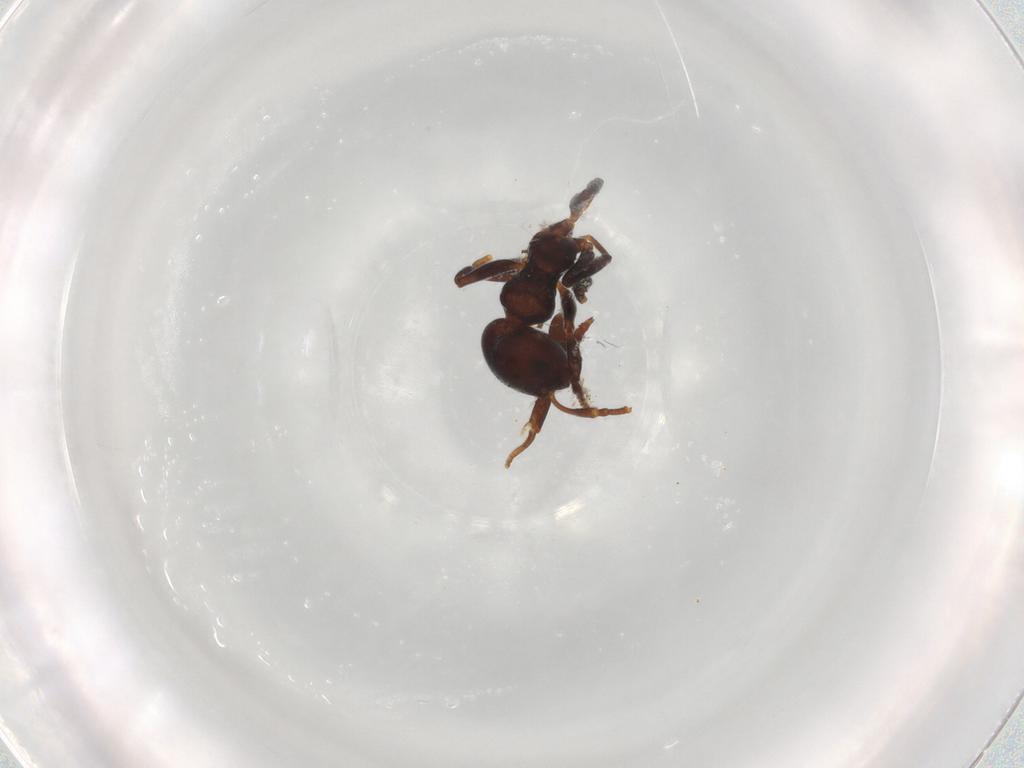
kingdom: Animalia
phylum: Arthropoda
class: Insecta
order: Hymenoptera
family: Formicidae
